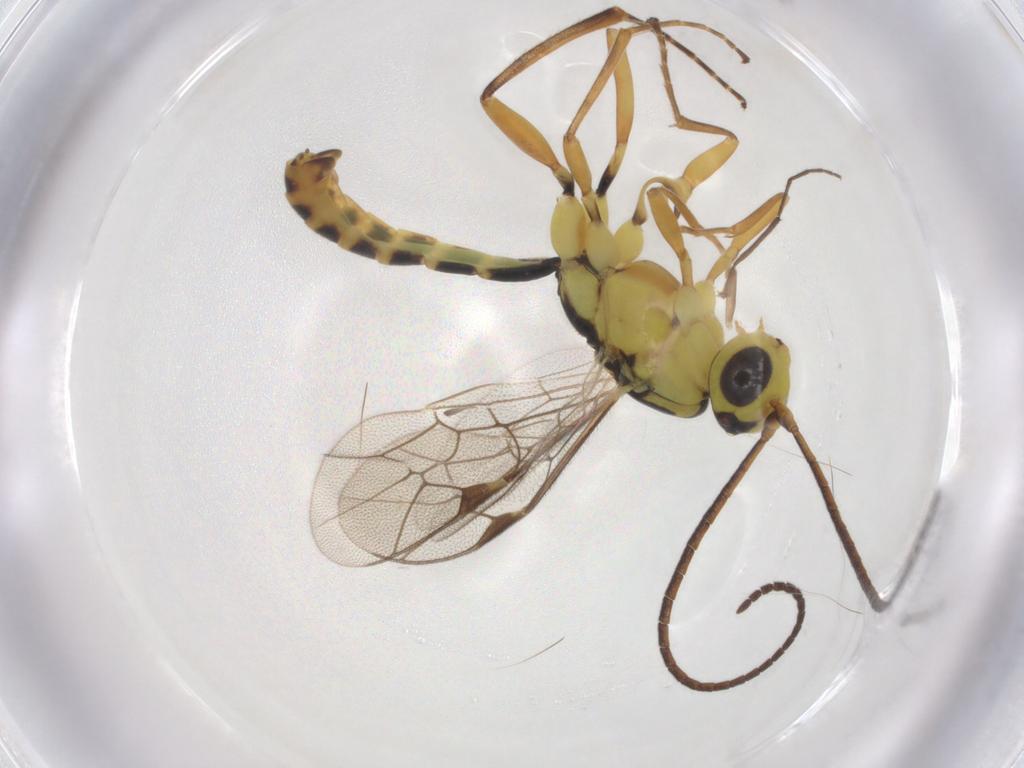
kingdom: Animalia
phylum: Arthropoda
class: Insecta
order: Hymenoptera
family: Ichneumonidae
